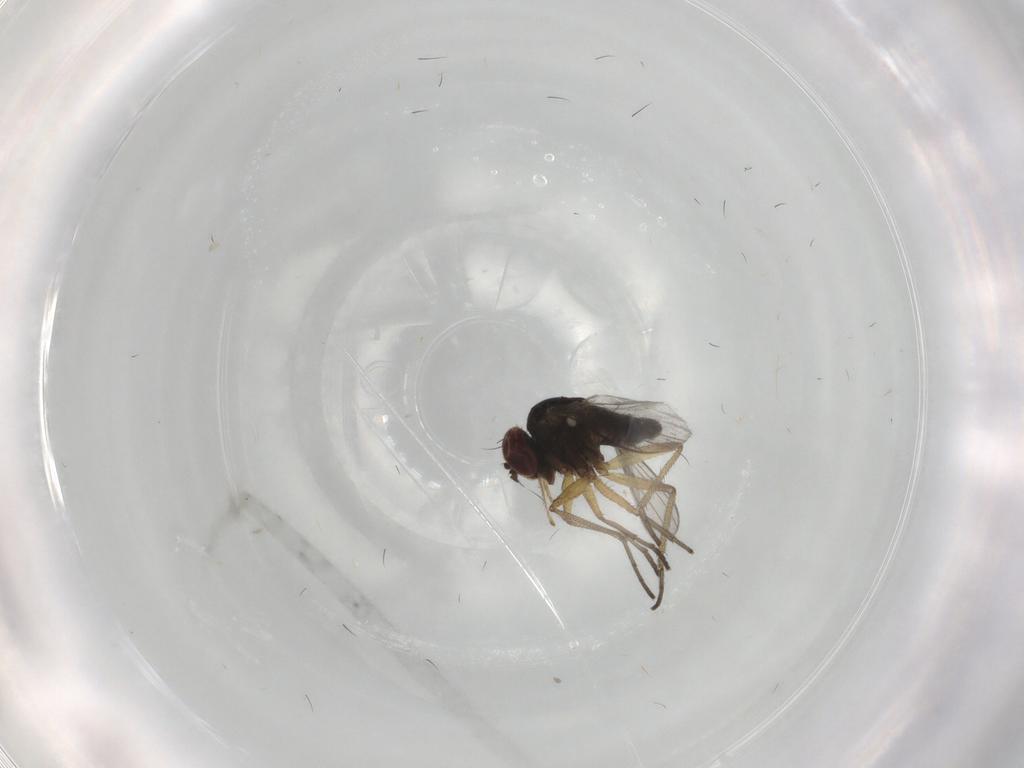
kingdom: Animalia
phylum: Arthropoda
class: Insecta
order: Diptera
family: Dolichopodidae
